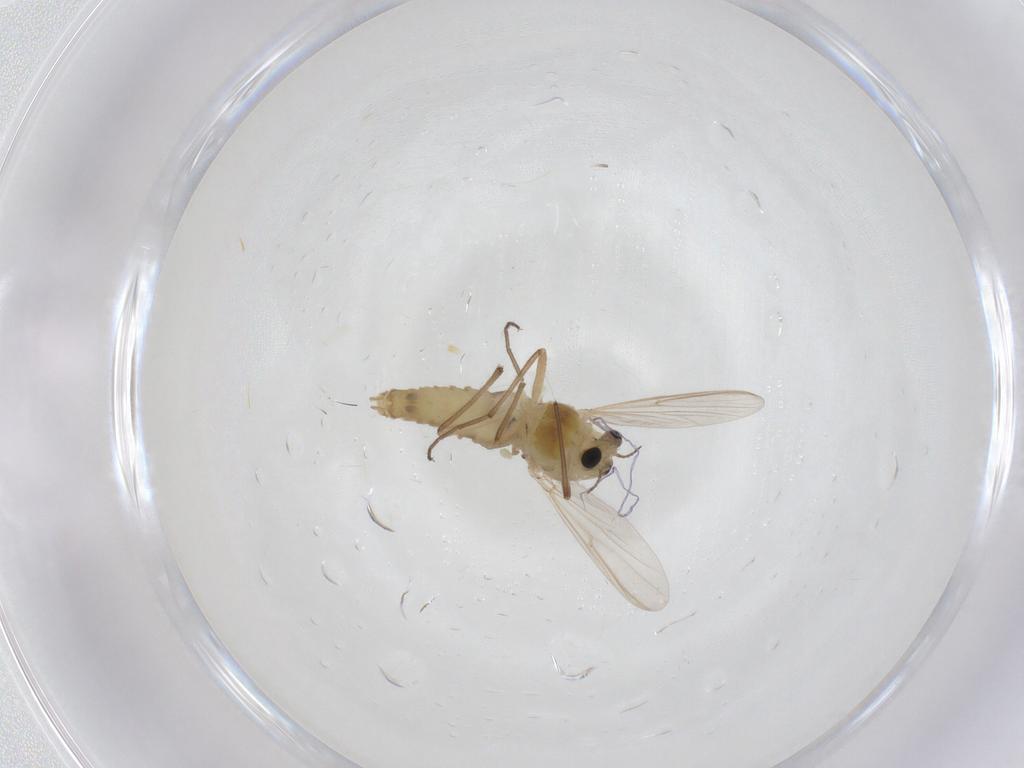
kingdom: Animalia
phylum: Arthropoda
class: Insecta
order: Diptera
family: Chironomidae
